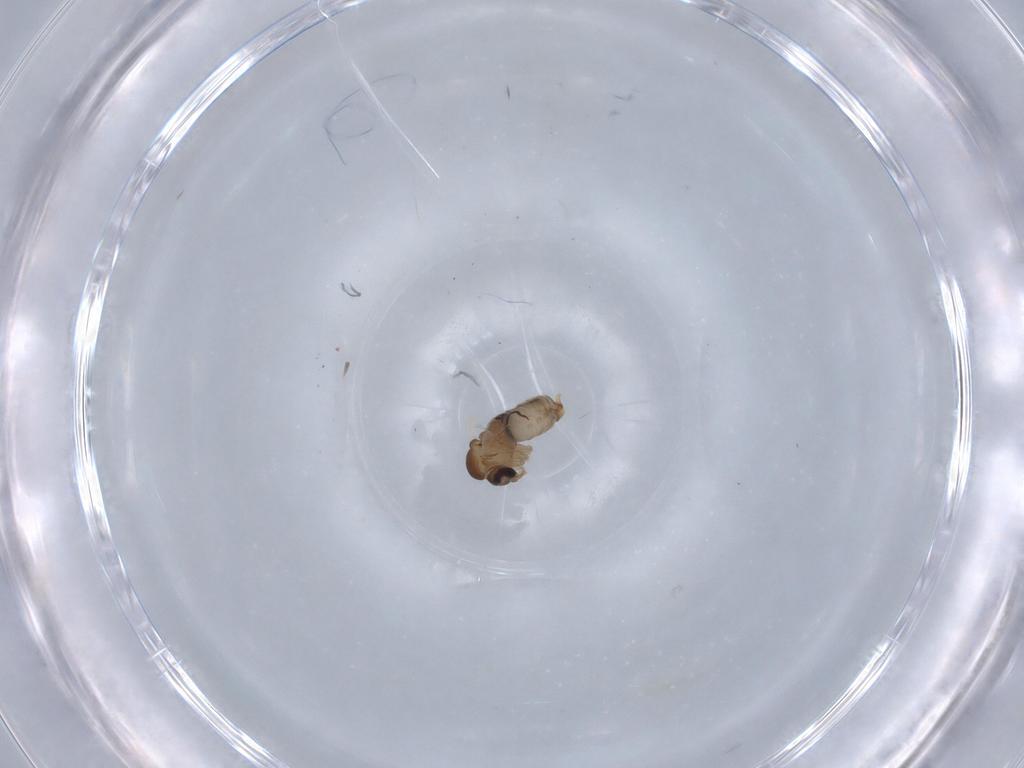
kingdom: Animalia
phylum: Arthropoda
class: Insecta
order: Diptera
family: Psychodidae
